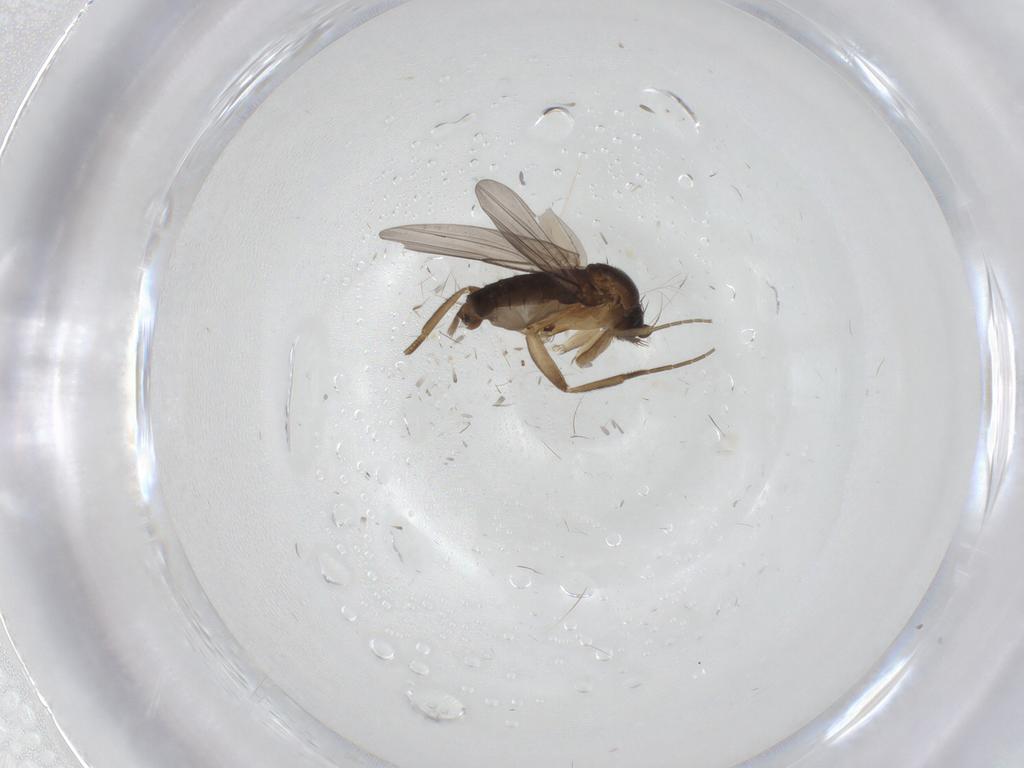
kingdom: Animalia
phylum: Arthropoda
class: Insecta
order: Diptera
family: Phoridae
